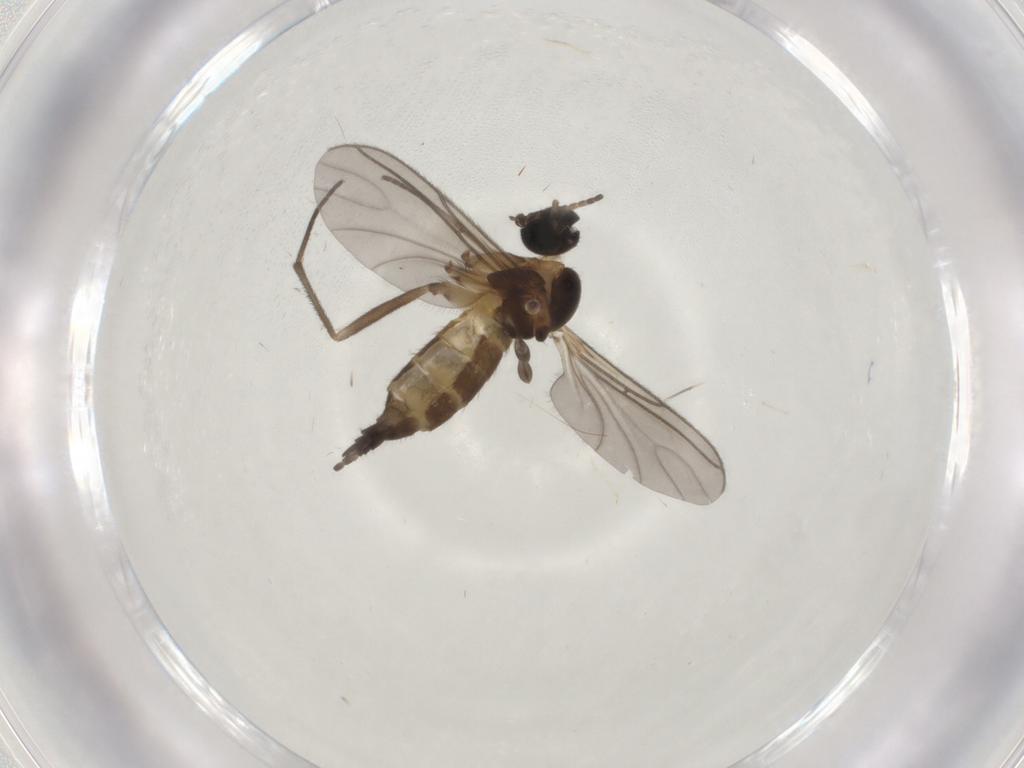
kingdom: Animalia
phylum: Arthropoda
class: Insecta
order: Diptera
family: Sciaridae
